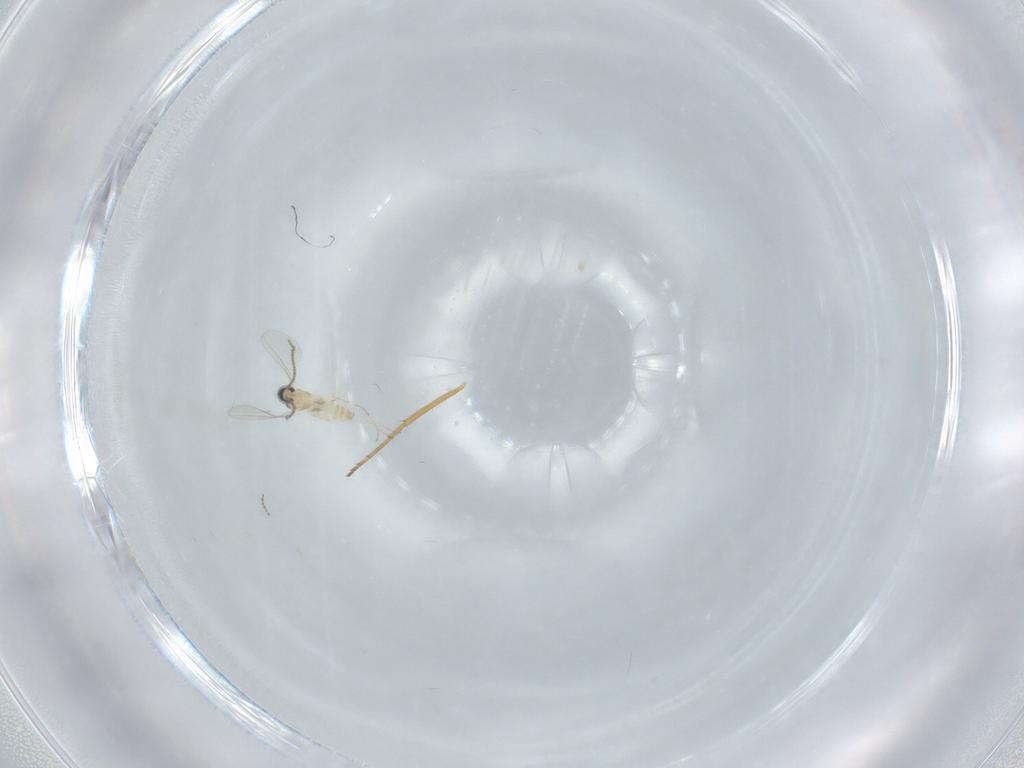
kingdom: Animalia
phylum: Arthropoda
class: Insecta
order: Diptera
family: Cecidomyiidae
